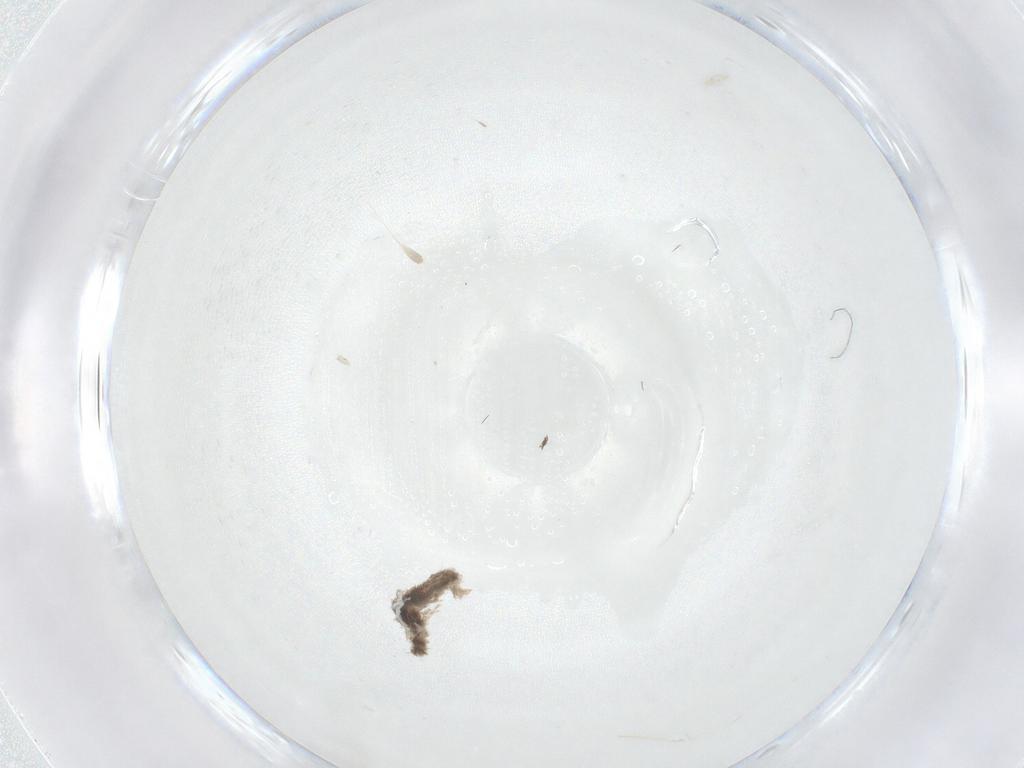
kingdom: Animalia
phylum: Arthropoda
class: Insecta
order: Diptera
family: Psychodidae
